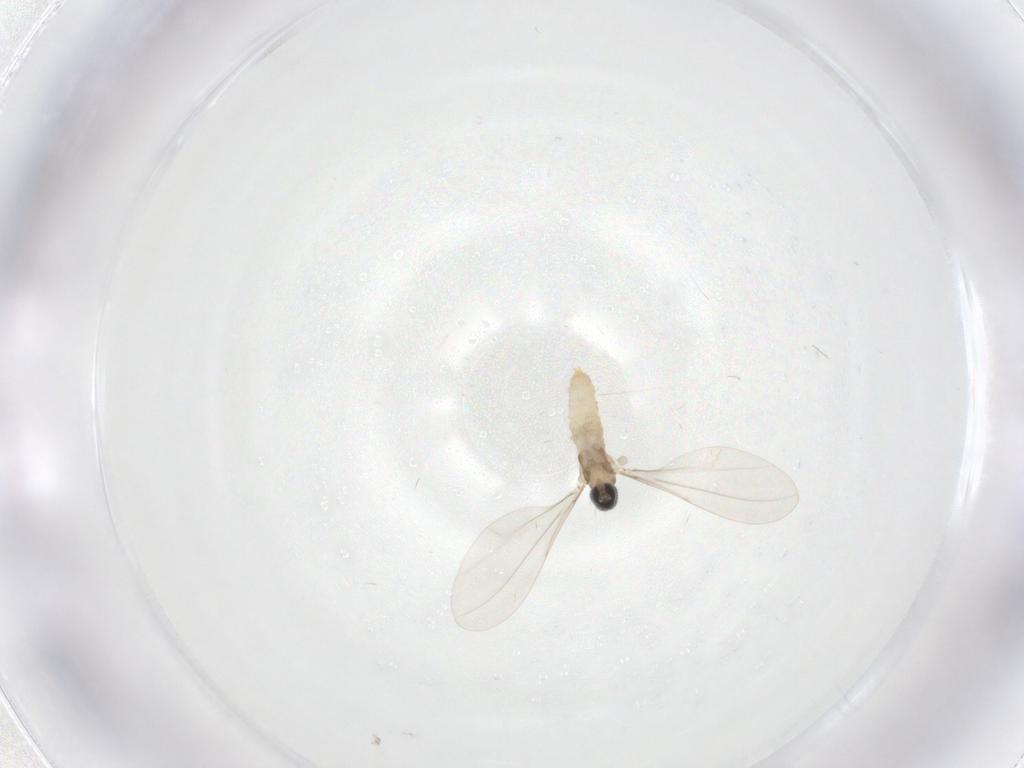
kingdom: Animalia
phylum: Arthropoda
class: Insecta
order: Diptera
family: Cecidomyiidae
